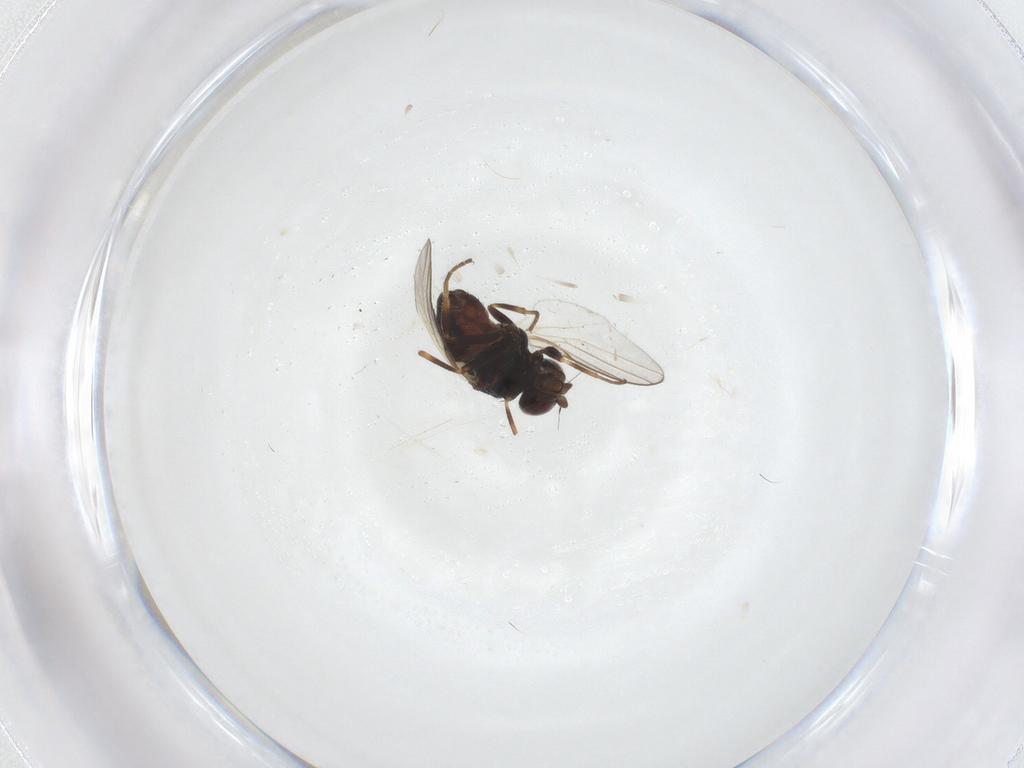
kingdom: Animalia
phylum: Arthropoda
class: Insecta
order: Diptera
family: Chloropidae
